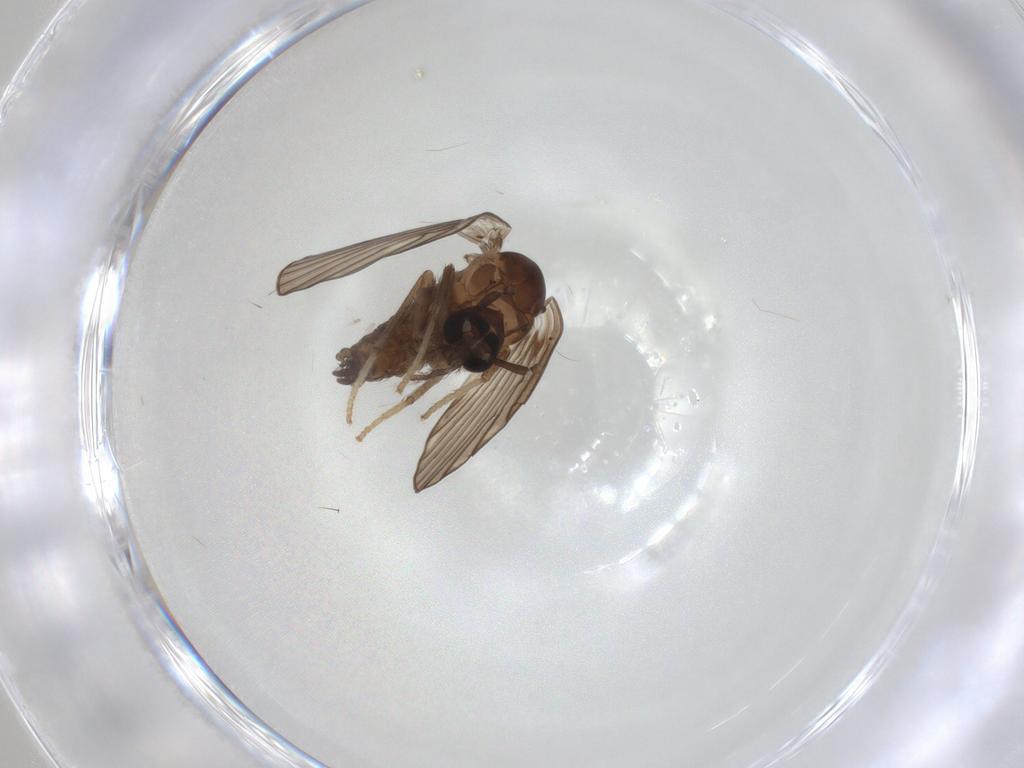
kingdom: Animalia
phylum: Arthropoda
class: Insecta
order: Diptera
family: Psychodidae
